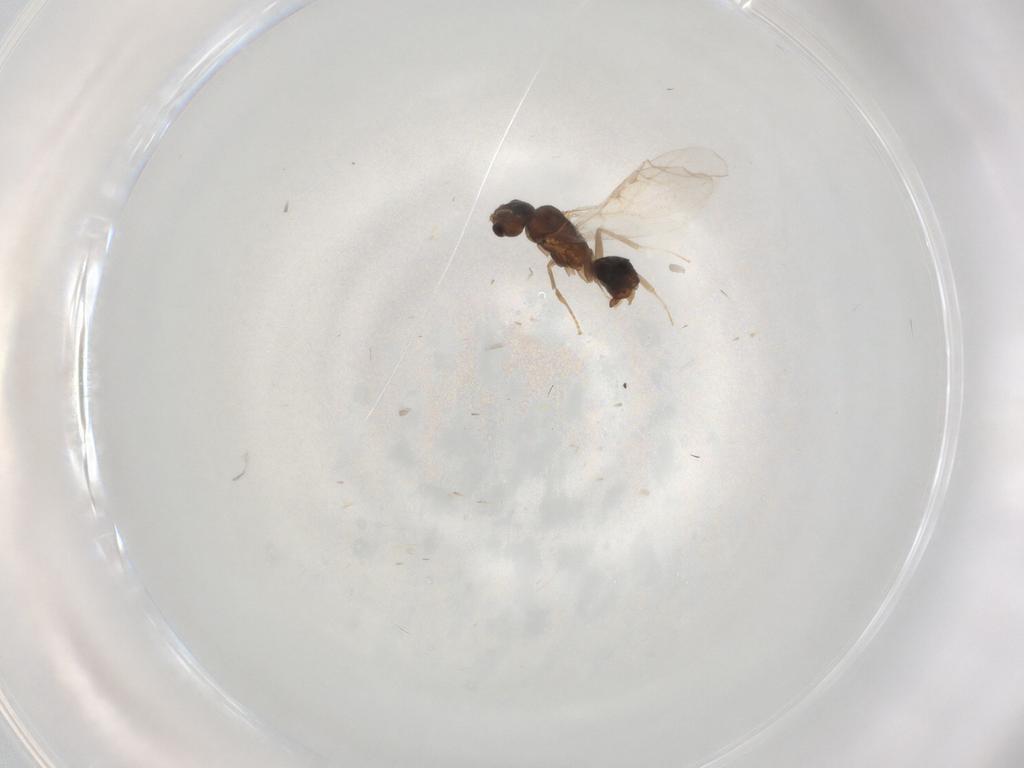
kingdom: Animalia
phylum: Arthropoda
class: Insecta
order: Hymenoptera
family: Formicidae
